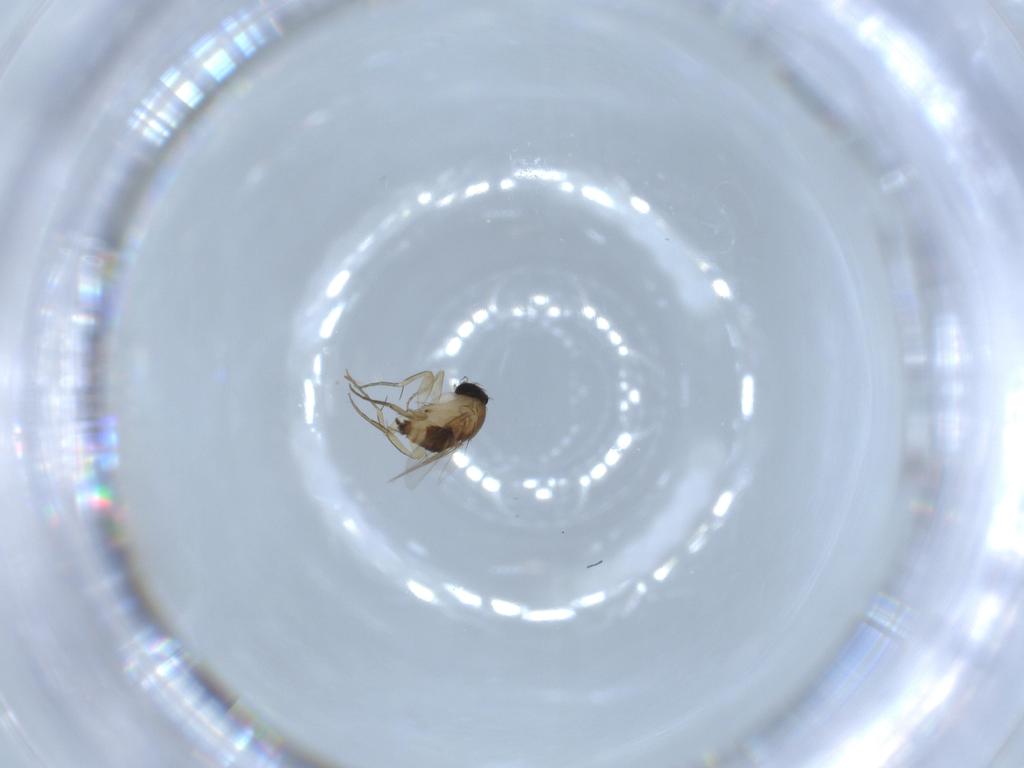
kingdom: Animalia
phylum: Arthropoda
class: Insecta
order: Diptera
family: Phoridae
